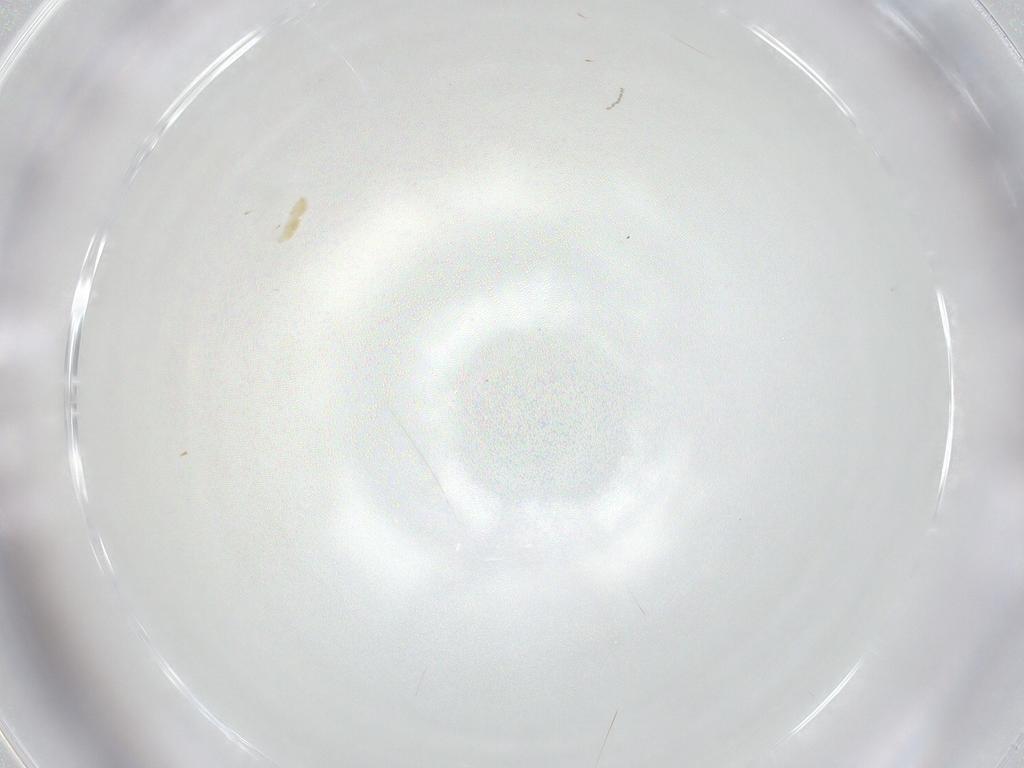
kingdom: Animalia
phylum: Arthropoda
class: Arachnida
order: Trombidiformes
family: Eupodidae
